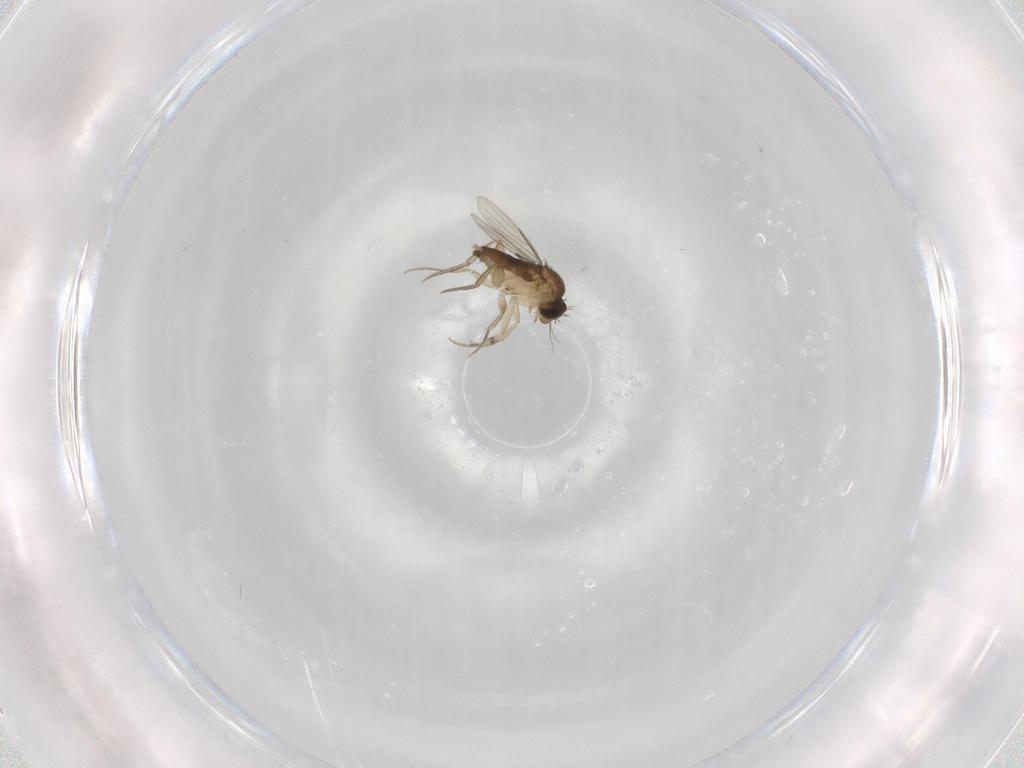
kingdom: Animalia
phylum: Arthropoda
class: Insecta
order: Diptera
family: Phoridae
